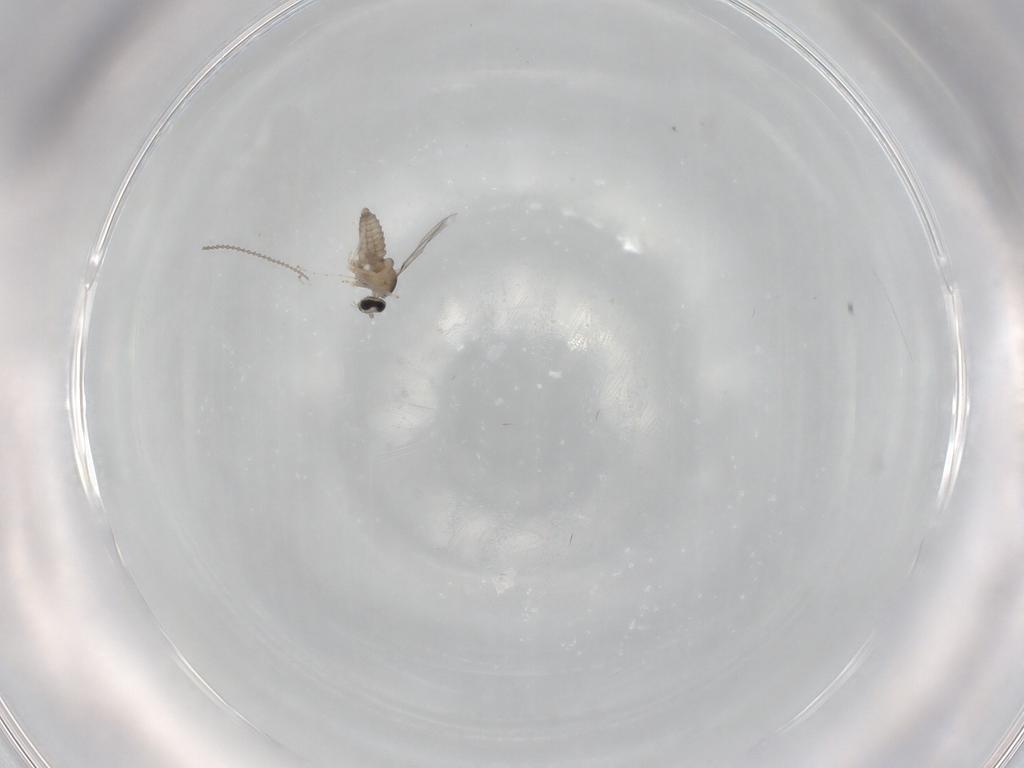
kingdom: Animalia
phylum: Arthropoda
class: Insecta
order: Diptera
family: Cecidomyiidae
